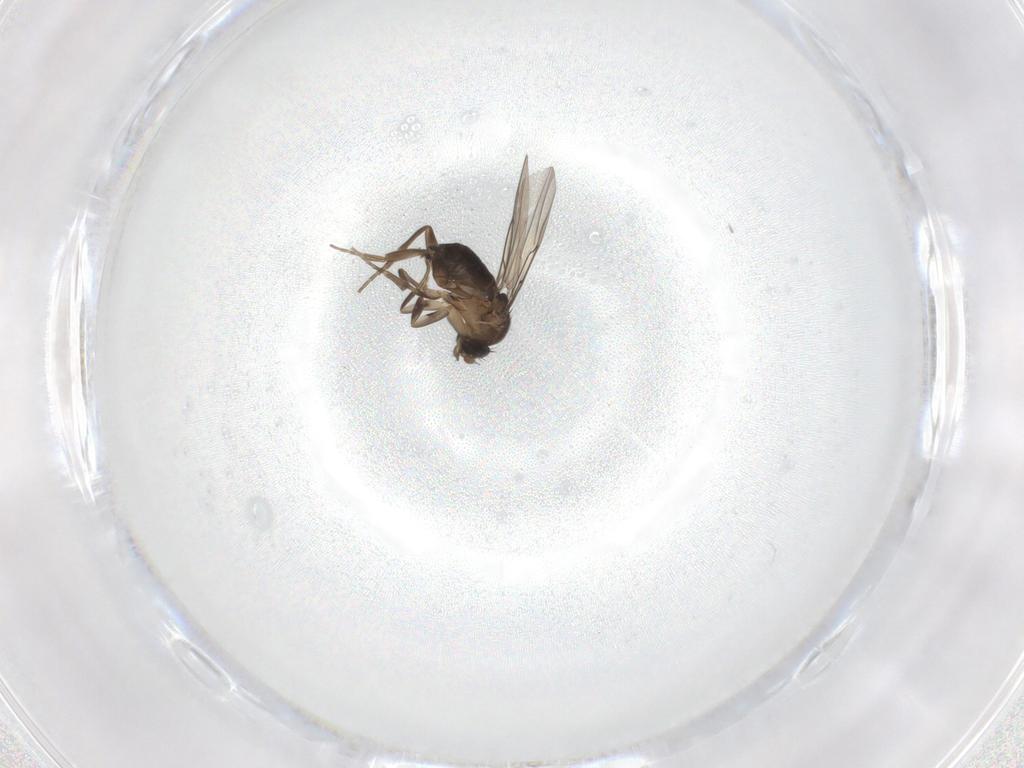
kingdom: Animalia
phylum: Arthropoda
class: Insecta
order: Diptera
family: Phoridae
